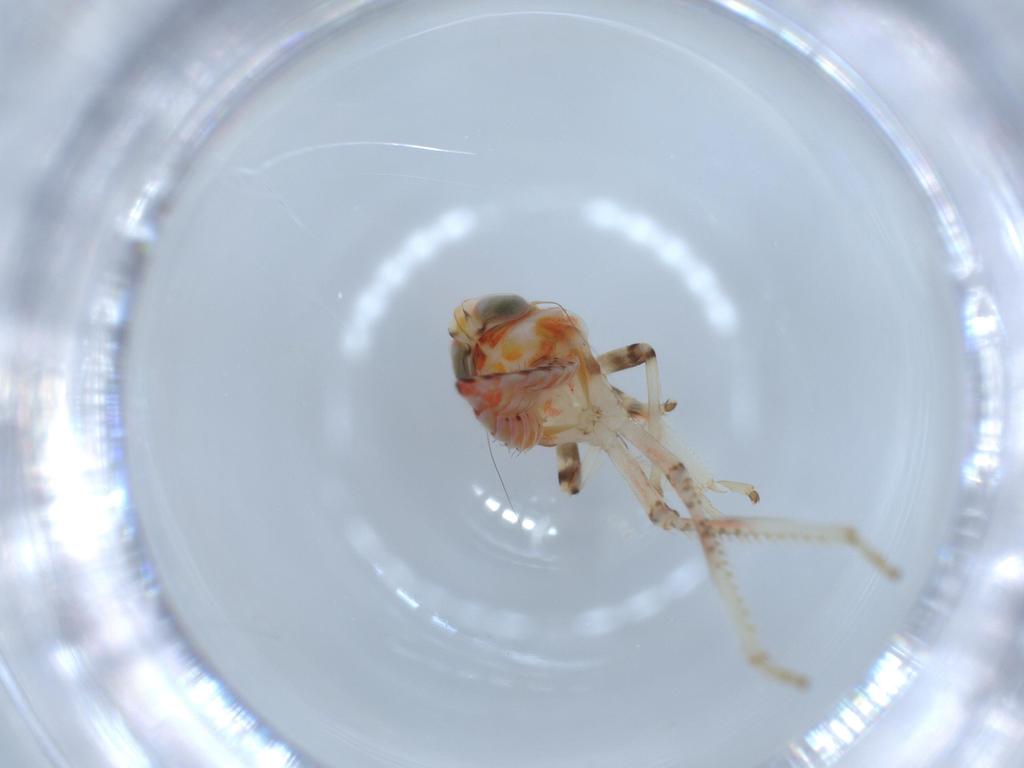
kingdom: Animalia
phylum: Arthropoda
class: Insecta
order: Hemiptera
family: Cicadellidae
